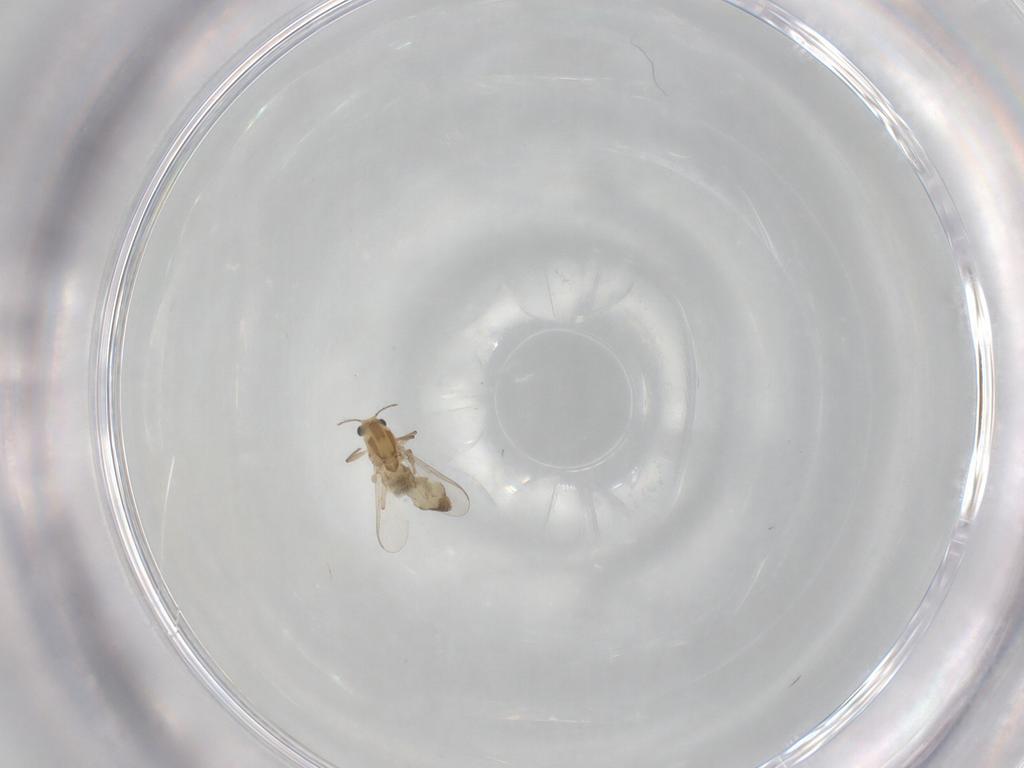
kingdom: Animalia
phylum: Arthropoda
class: Insecta
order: Diptera
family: Chironomidae
